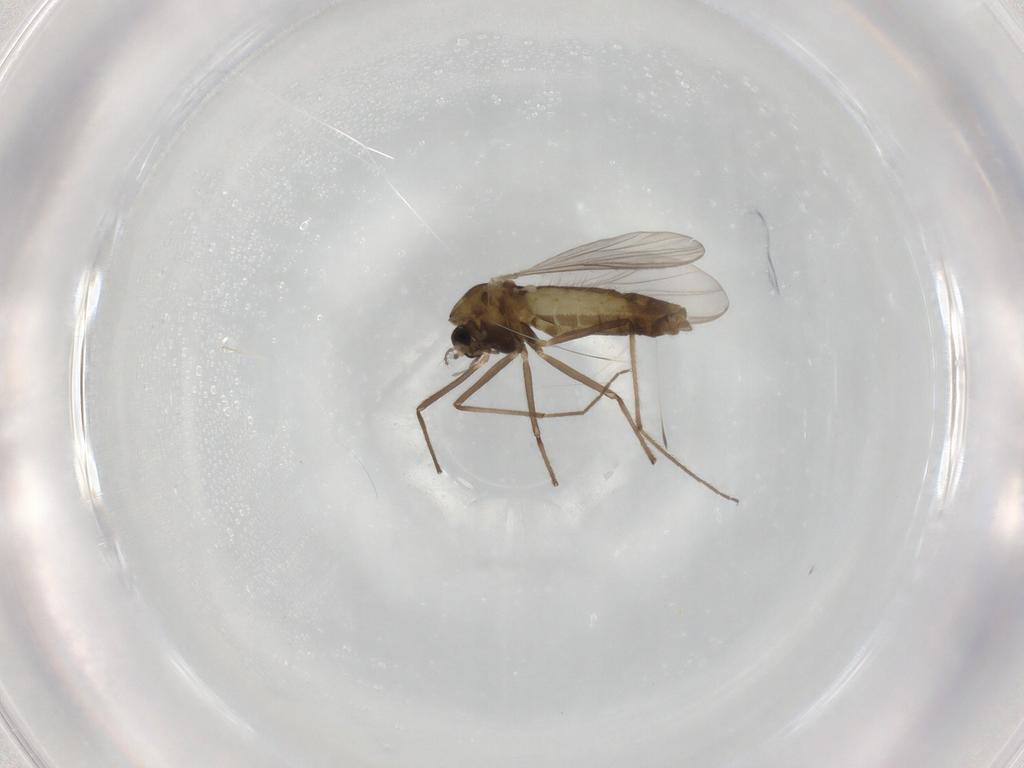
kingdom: Animalia
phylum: Arthropoda
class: Insecta
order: Diptera
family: Chironomidae
